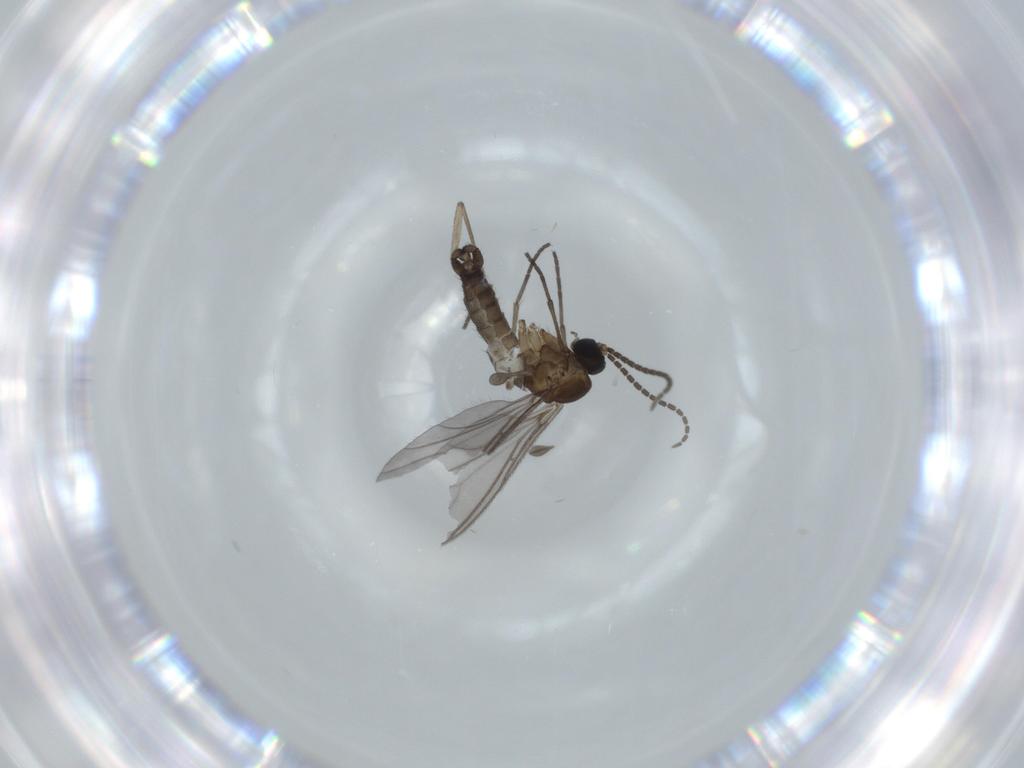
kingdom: Animalia
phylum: Arthropoda
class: Insecta
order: Diptera
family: Sciaridae
